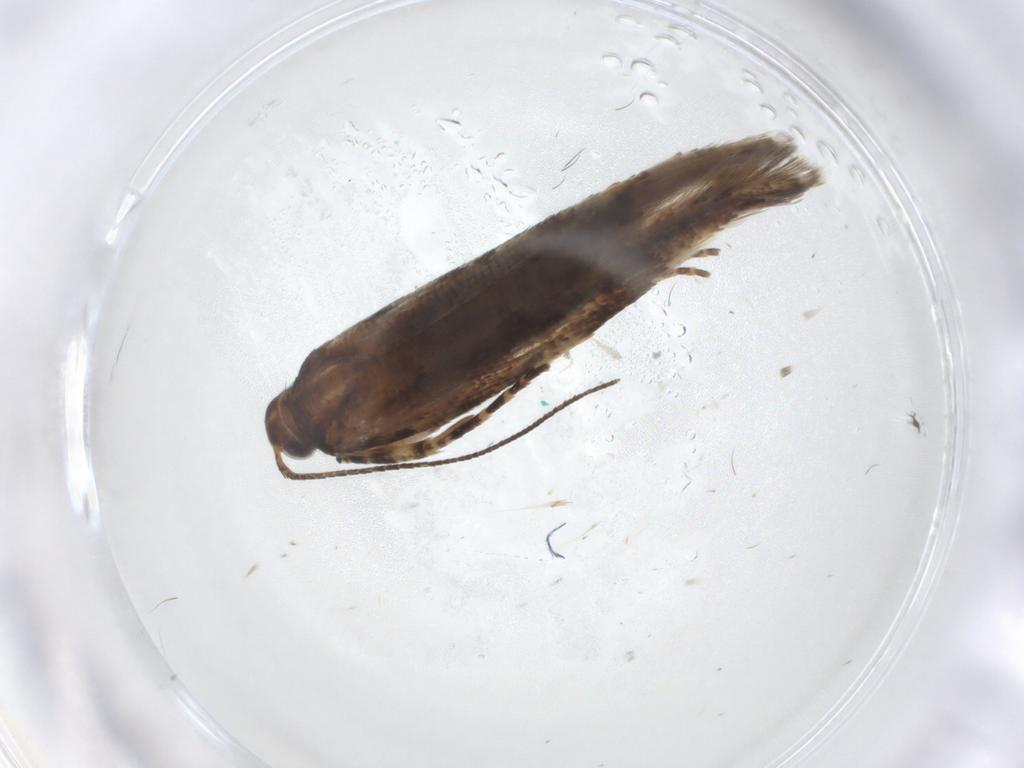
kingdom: Animalia
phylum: Arthropoda
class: Insecta
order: Lepidoptera
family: Gelechiidae
